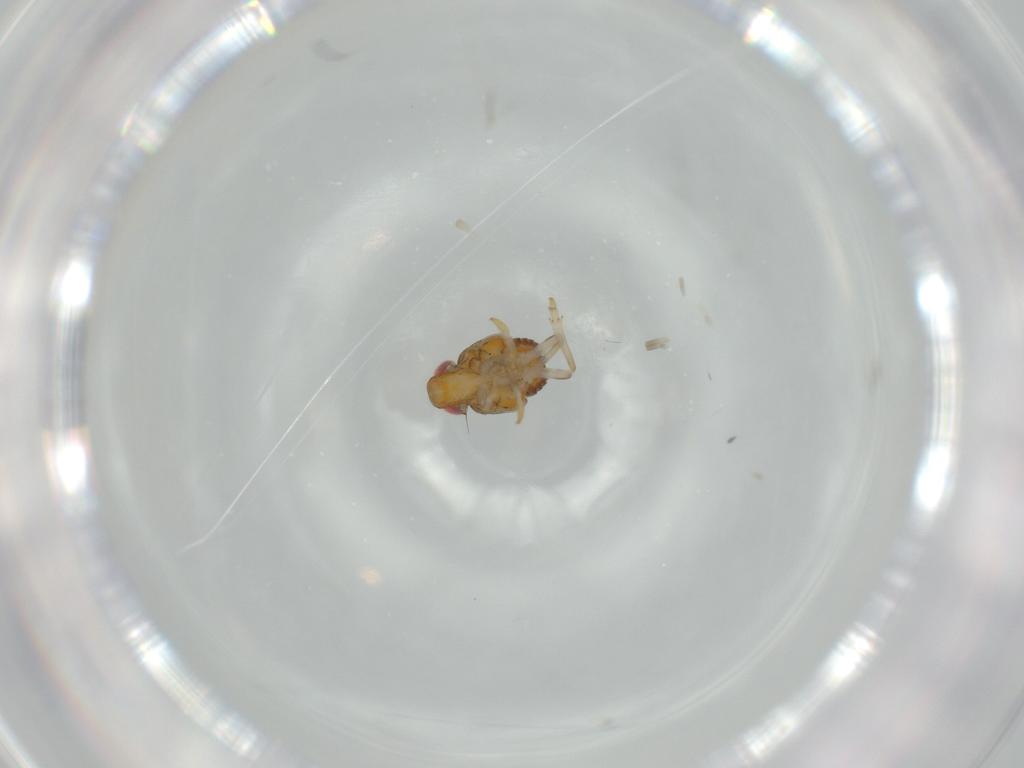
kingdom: Animalia
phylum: Arthropoda
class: Insecta
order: Hemiptera
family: Issidae
